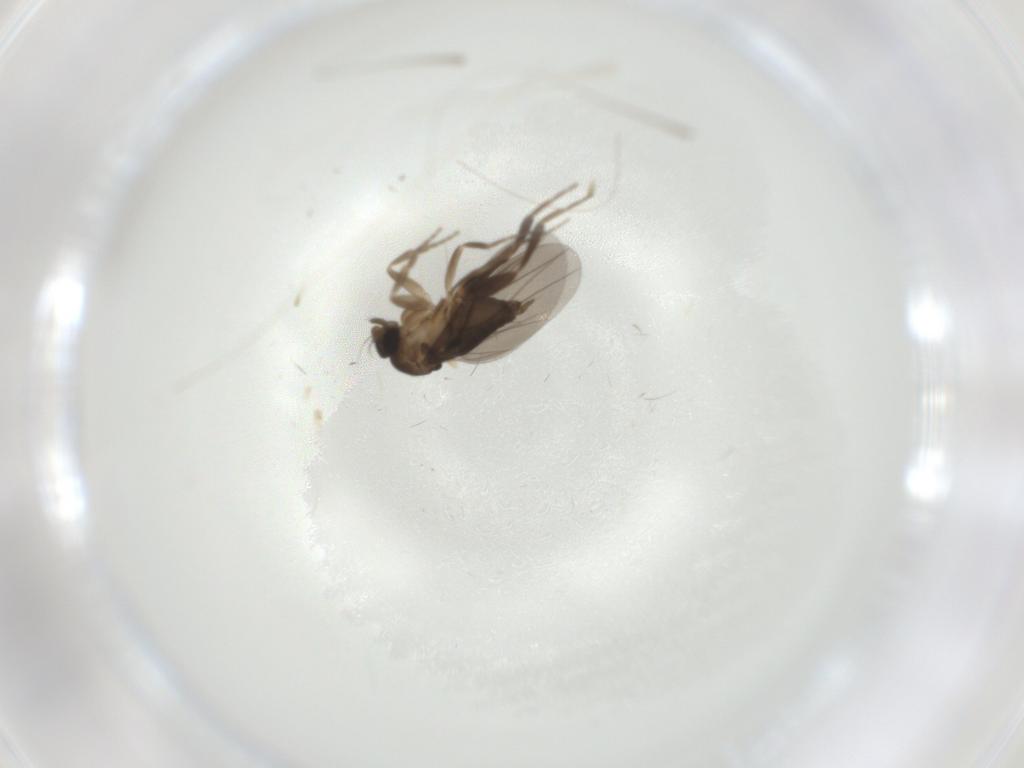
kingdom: Animalia
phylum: Arthropoda
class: Insecta
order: Diptera
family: Phoridae
